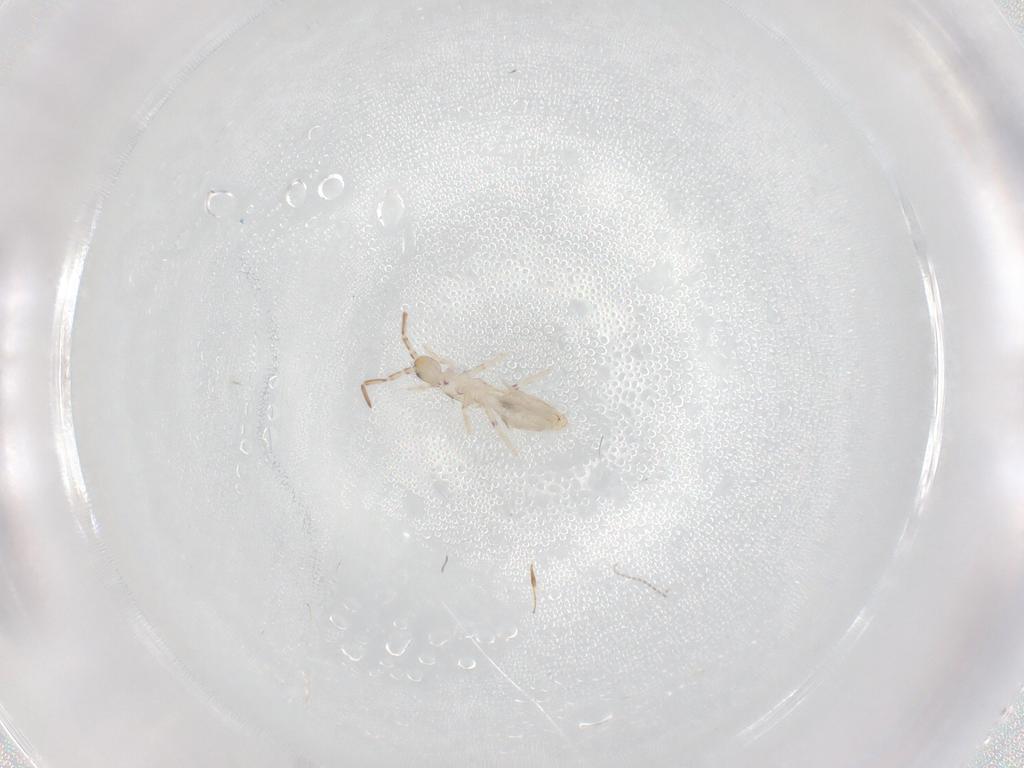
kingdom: Animalia
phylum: Arthropoda
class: Collembola
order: Entomobryomorpha
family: Entomobryidae
